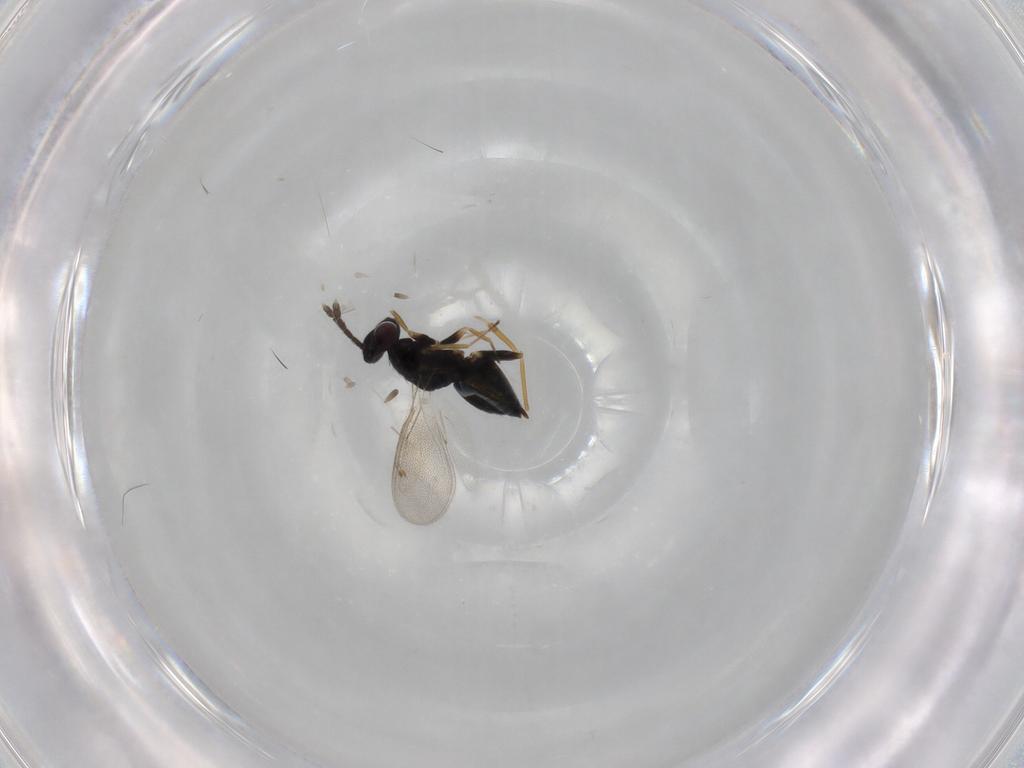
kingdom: Animalia
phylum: Arthropoda
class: Insecta
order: Hymenoptera
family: Eulophidae
